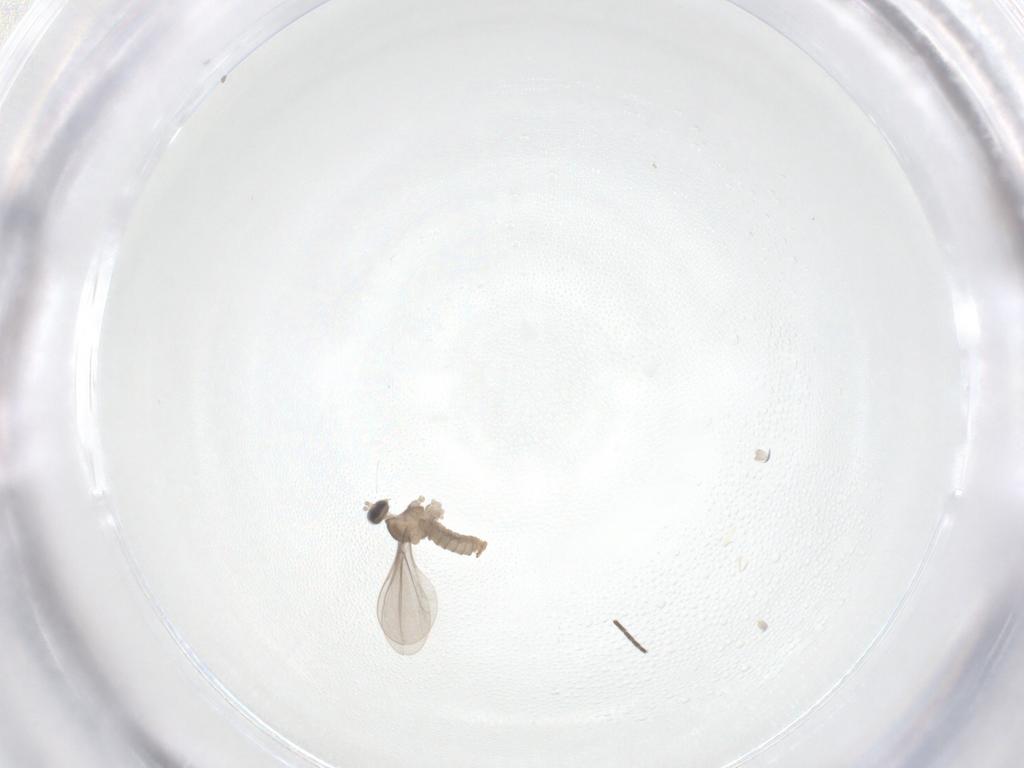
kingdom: Animalia
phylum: Arthropoda
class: Insecta
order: Diptera
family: Cecidomyiidae
